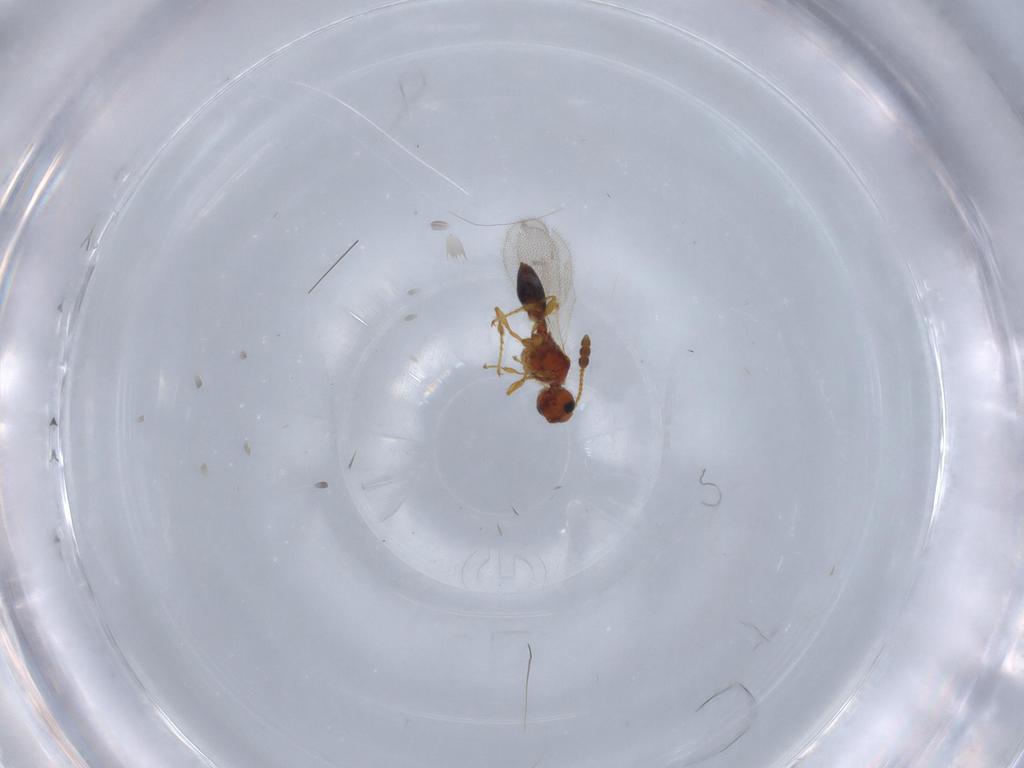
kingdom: Animalia
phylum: Arthropoda
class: Insecta
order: Hymenoptera
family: Diapriidae
